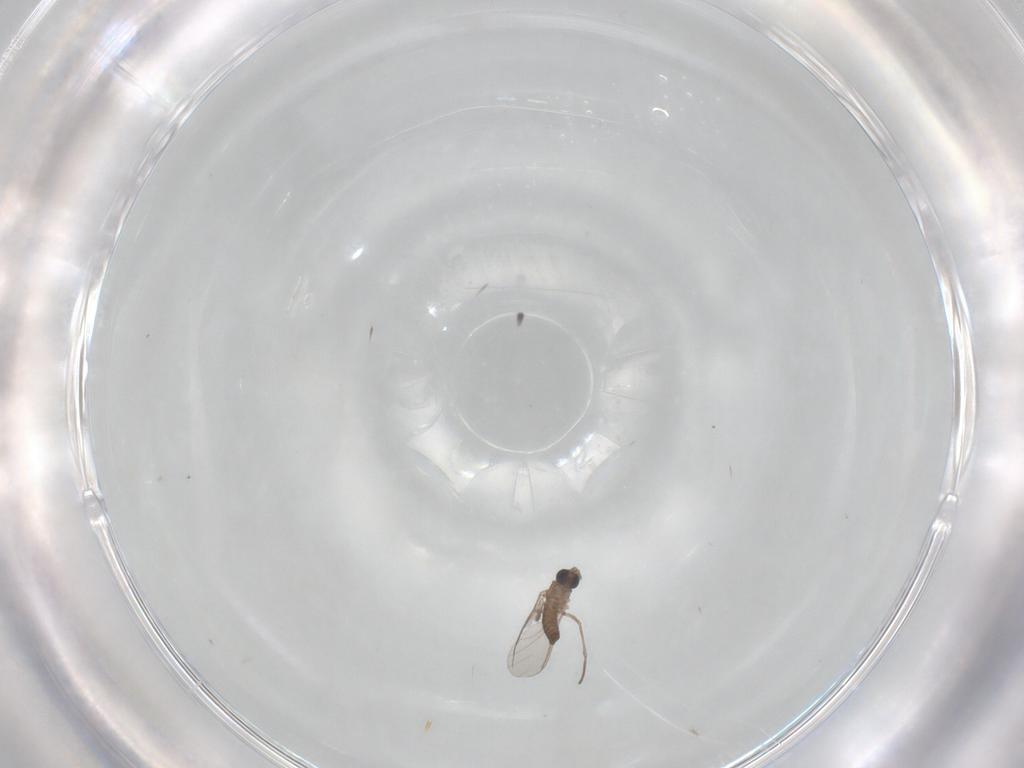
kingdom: Animalia
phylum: Arthropoda
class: Insecta
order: Diptera
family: Sciaridae
